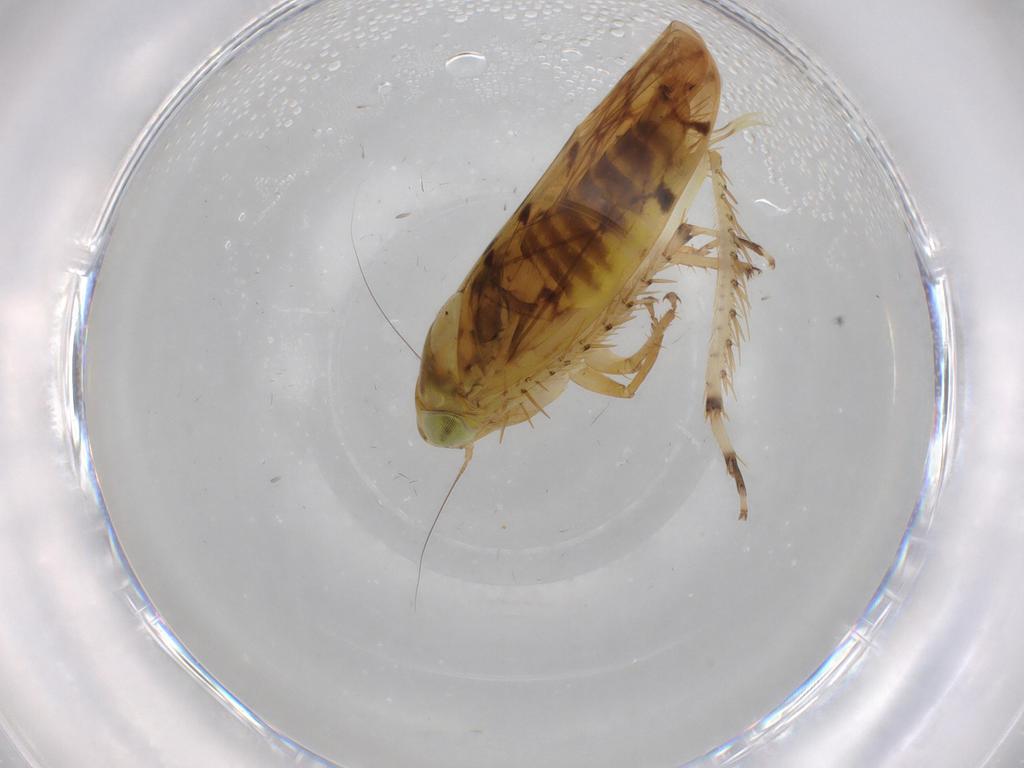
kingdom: Animalia
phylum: Arthropoda
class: Insecta
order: Hemiptera
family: Cicadellidae
